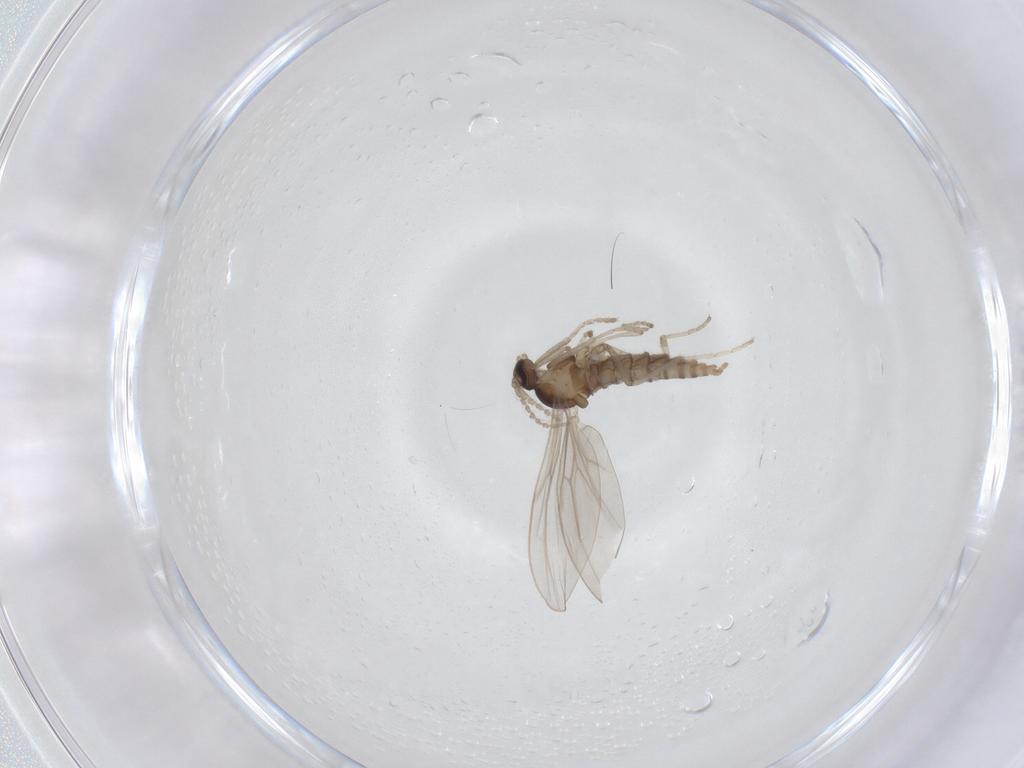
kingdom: Animalia
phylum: Arthropoda
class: Insecta
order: Diptera
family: Cecidomyiidae
